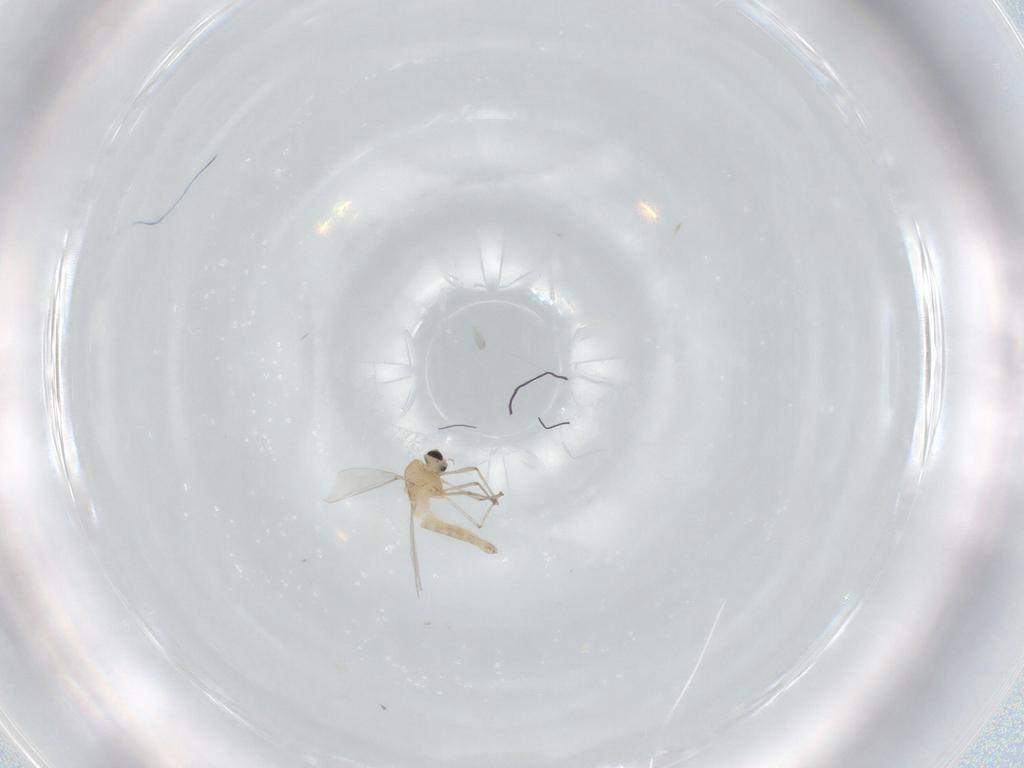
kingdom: Animalia
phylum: Arthropoda
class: Insecta
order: Diptera
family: Chironomidae
